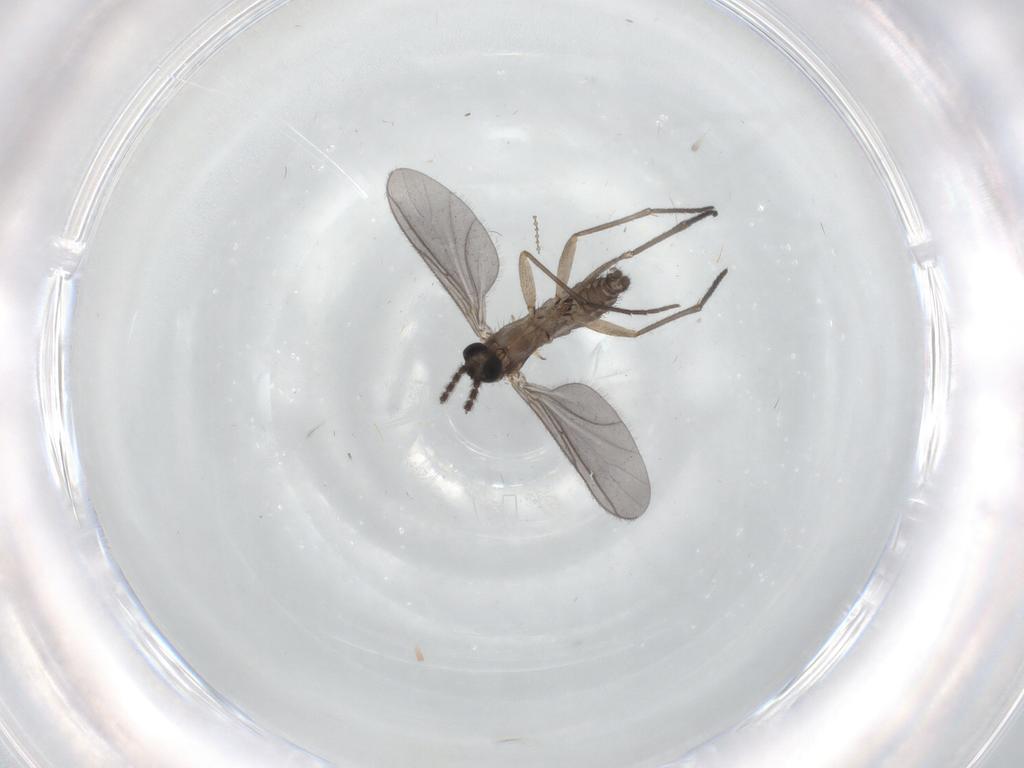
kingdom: Animalia
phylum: Arthropoda
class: Insecta
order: Diptera
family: Sciaridae
